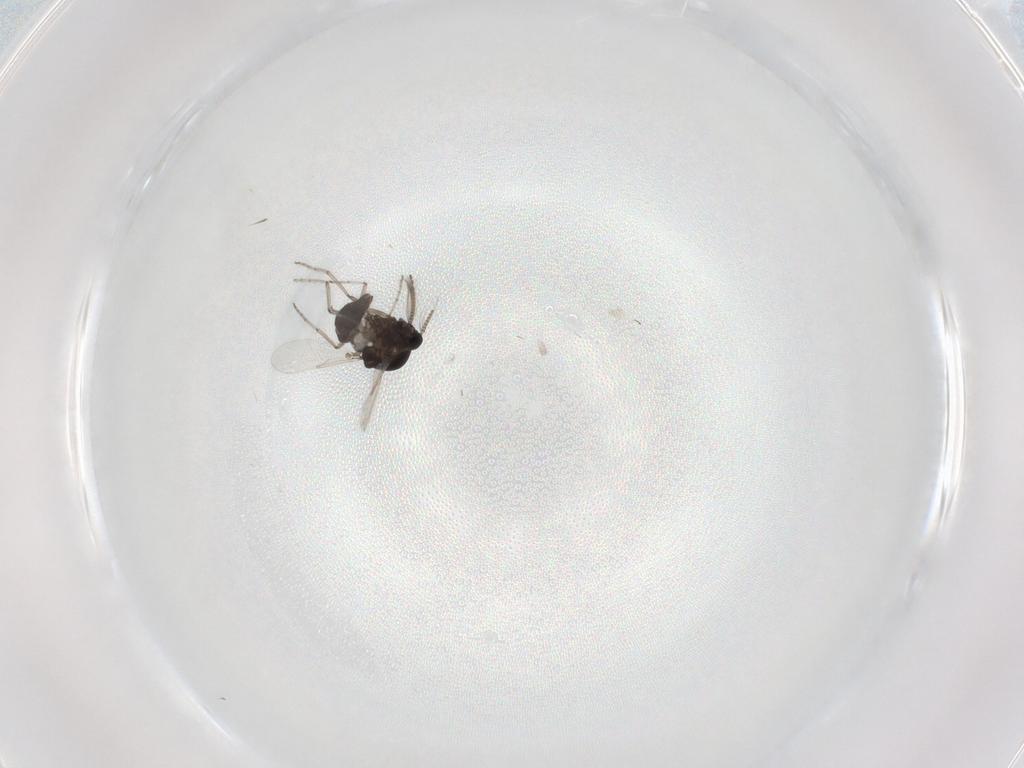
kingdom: Animalia
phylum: Arthropoda
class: Insecta
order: Diptera
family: Ceratopogonidae
